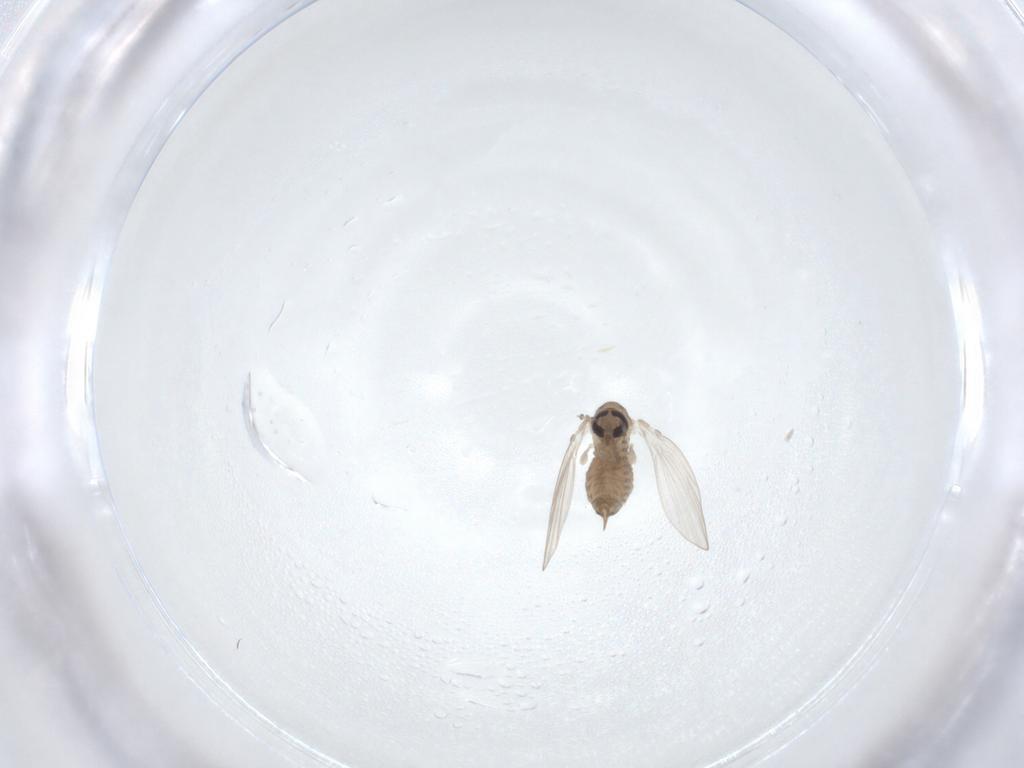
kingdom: Animalia
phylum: Arthropoda
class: Insecta
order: Diptera
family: Psychodidae
